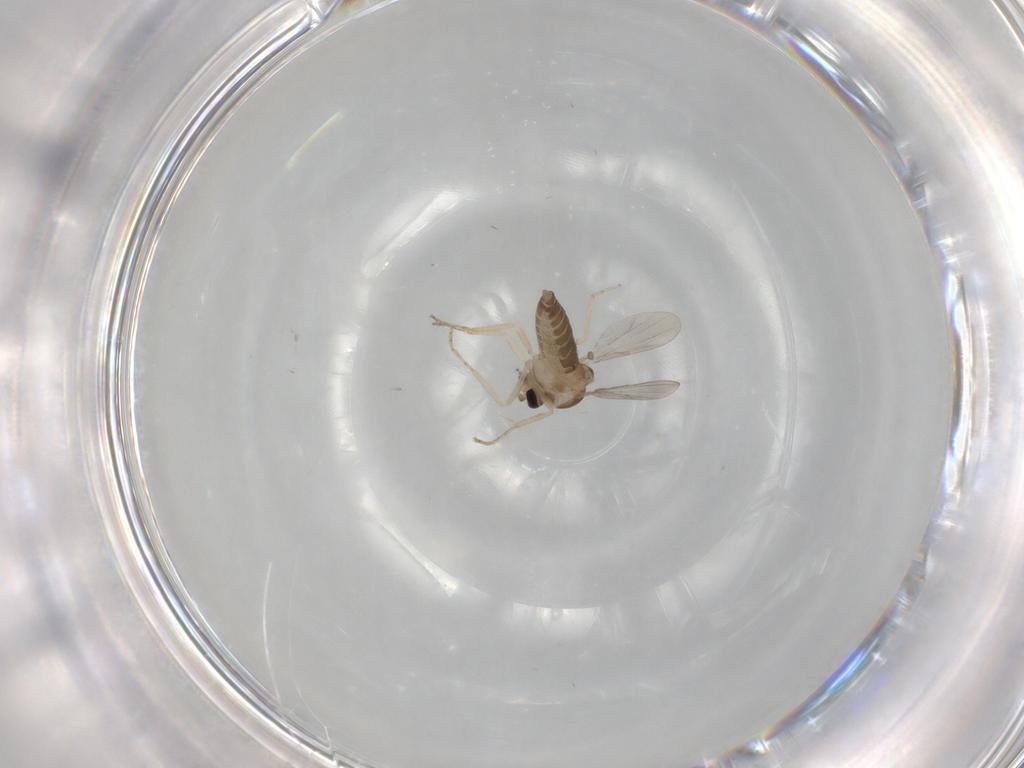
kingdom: Animalia
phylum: Arthropoda
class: Insecta
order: Diptera
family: Ceratopogonidae
